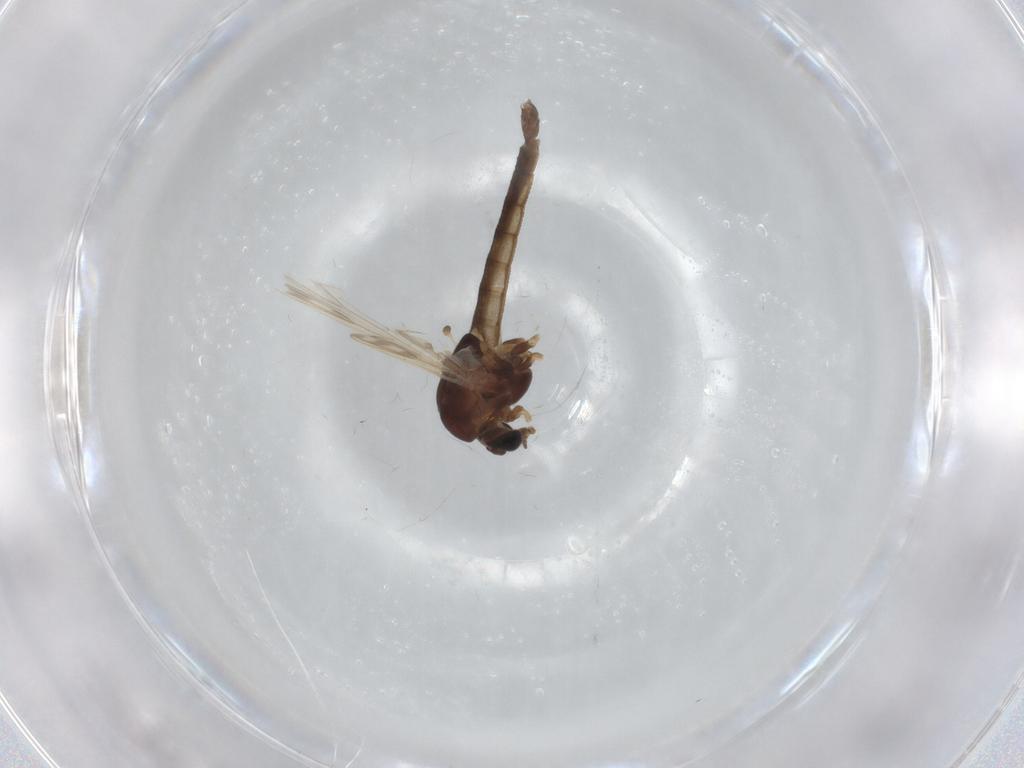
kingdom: Animalia
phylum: Arthropoda
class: Insecta
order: Diptera
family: Chironomidae
